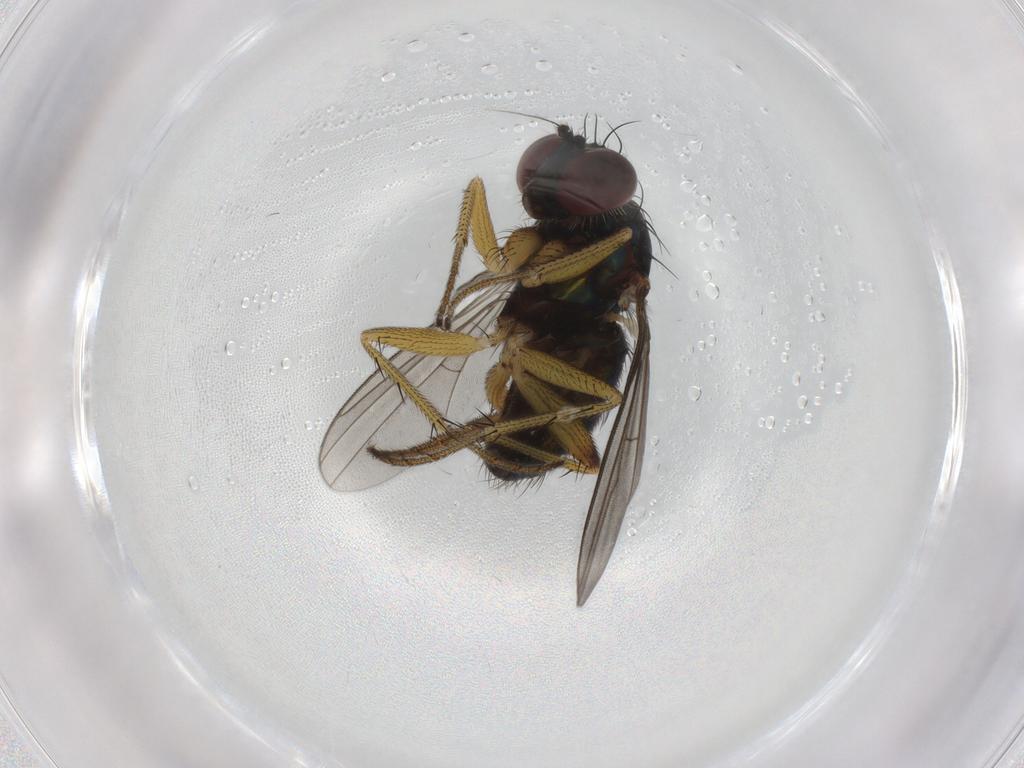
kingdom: Animalia
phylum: Arthropoda
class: Insecta
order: Diptera
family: Dolichopodidae
